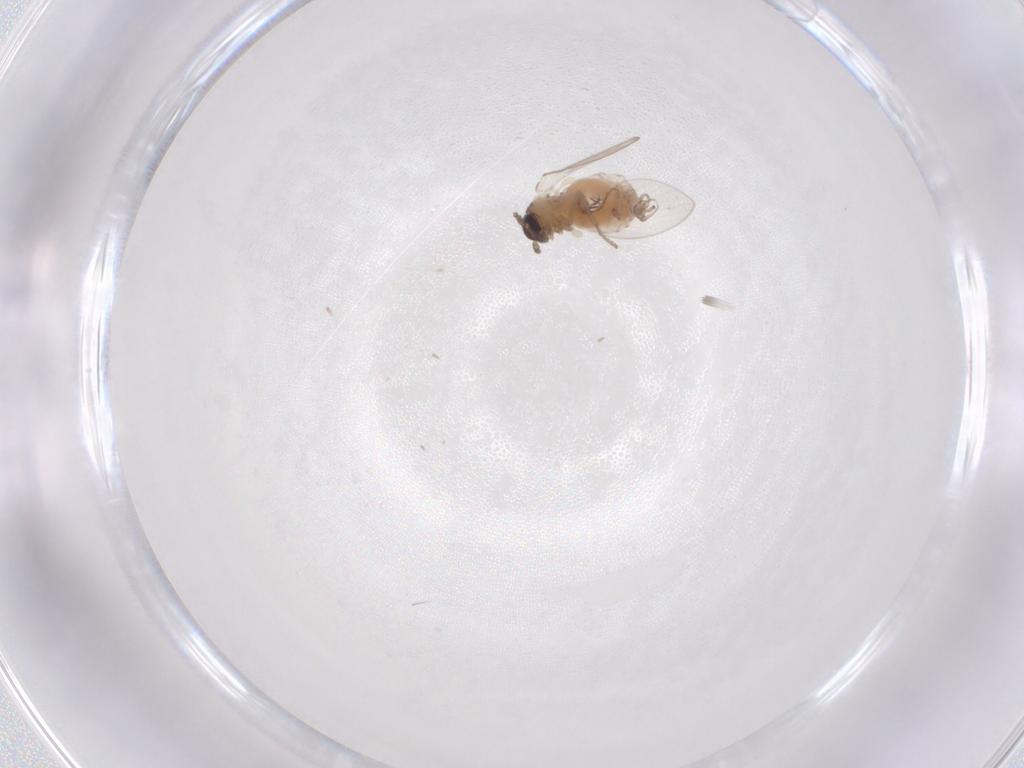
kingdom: Animalia
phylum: Arthropoda
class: Insecta
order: Diptera
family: Psychodidae
